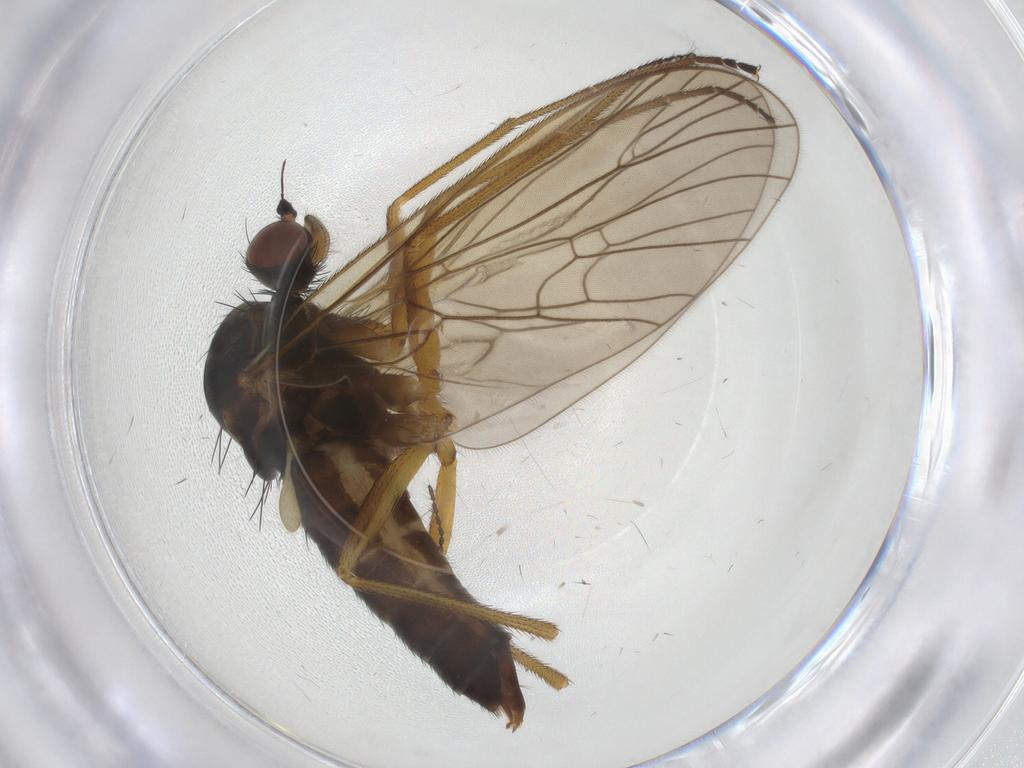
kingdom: Animalia
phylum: Arthropoda
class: Insecta
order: Diptera
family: Brachystomatidae
